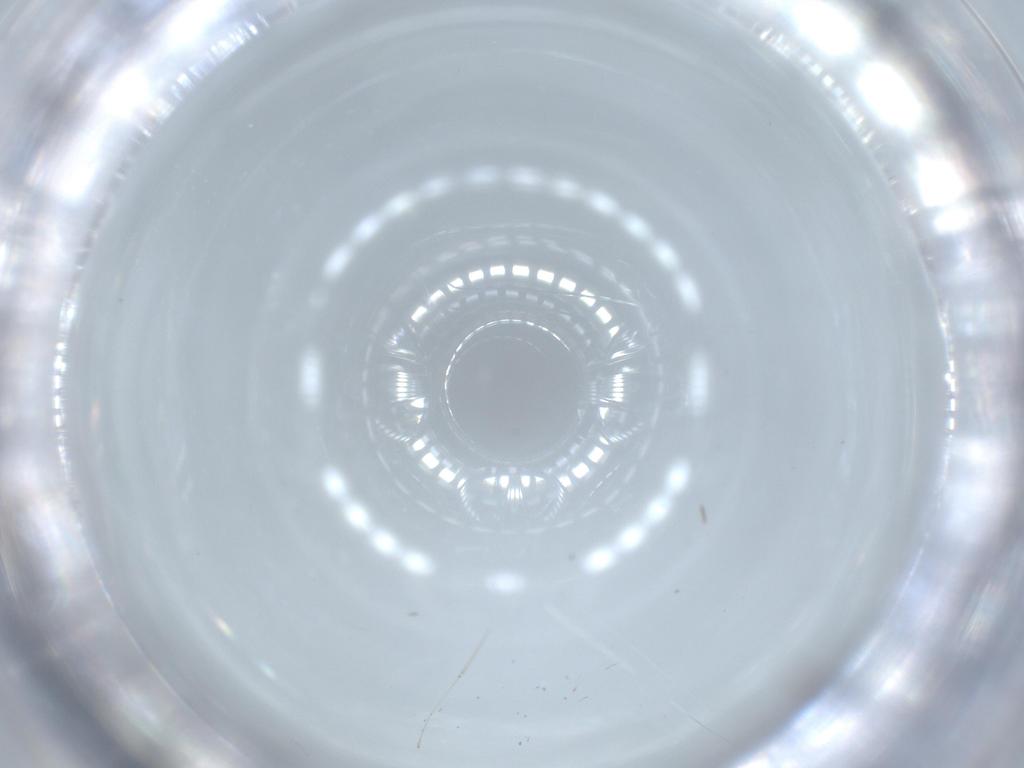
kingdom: Animalia
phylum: Arthropoda
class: Insecta
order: Diptera
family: Cecidomyiidae
